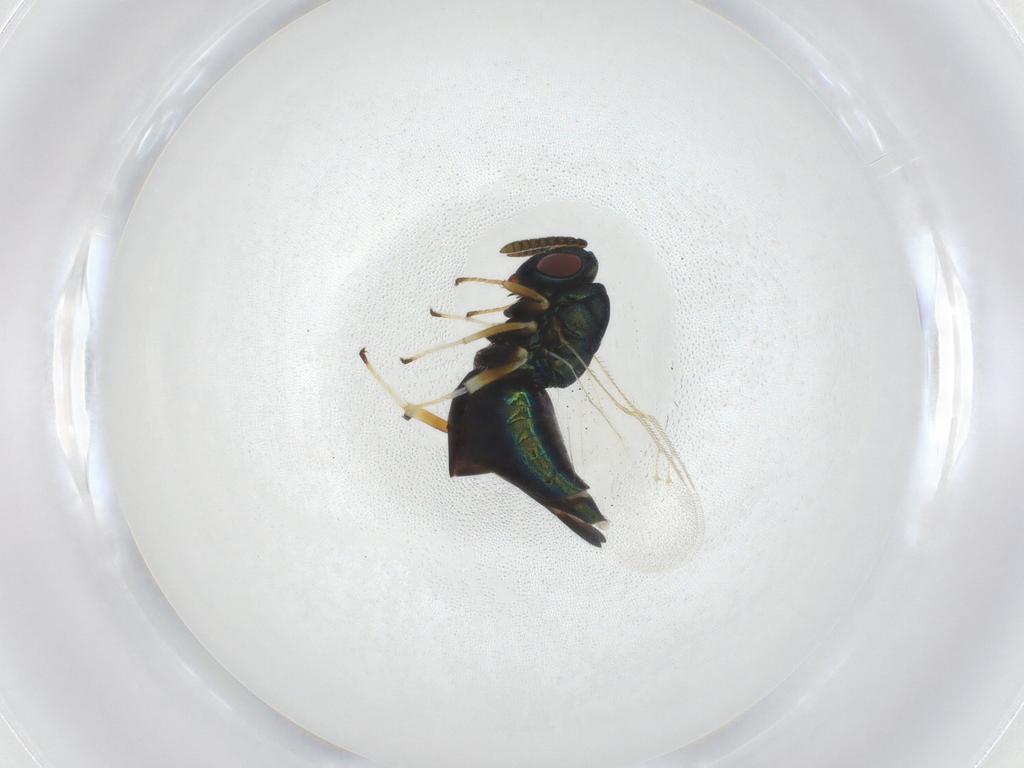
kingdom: Animalia
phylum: Arthropoda
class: Insecta
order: Hymenoptera
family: Pteromalidae
